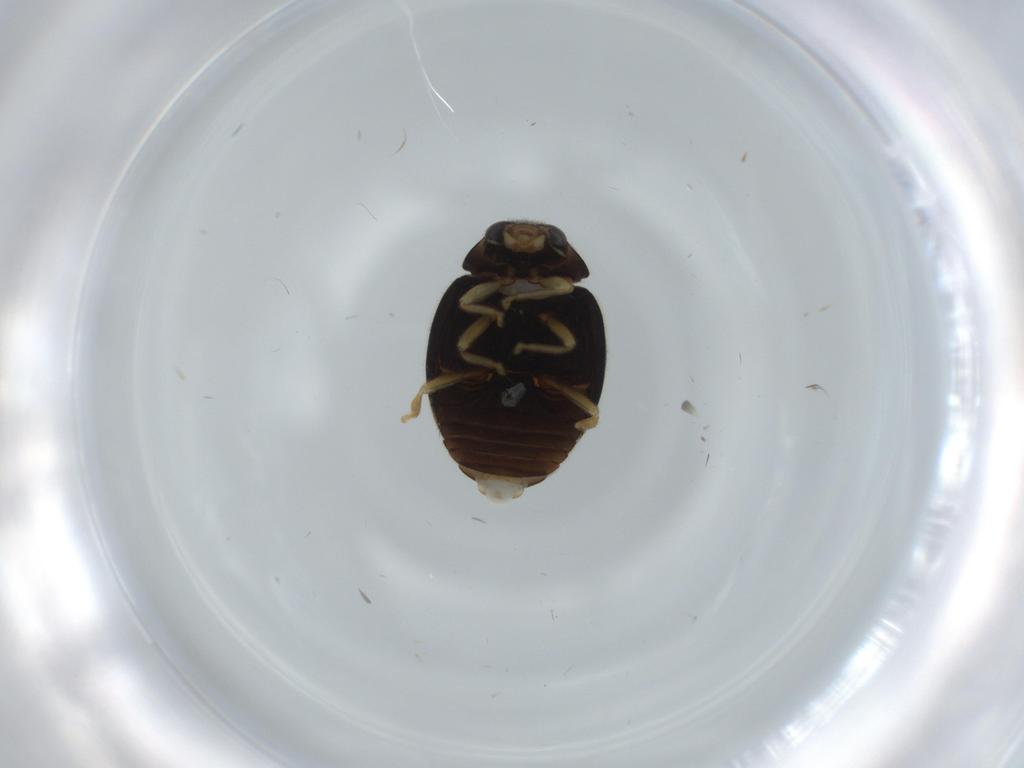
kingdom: Animalia
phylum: Arthropoda
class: Insecta
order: Coleoptera
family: Coccinellidae
